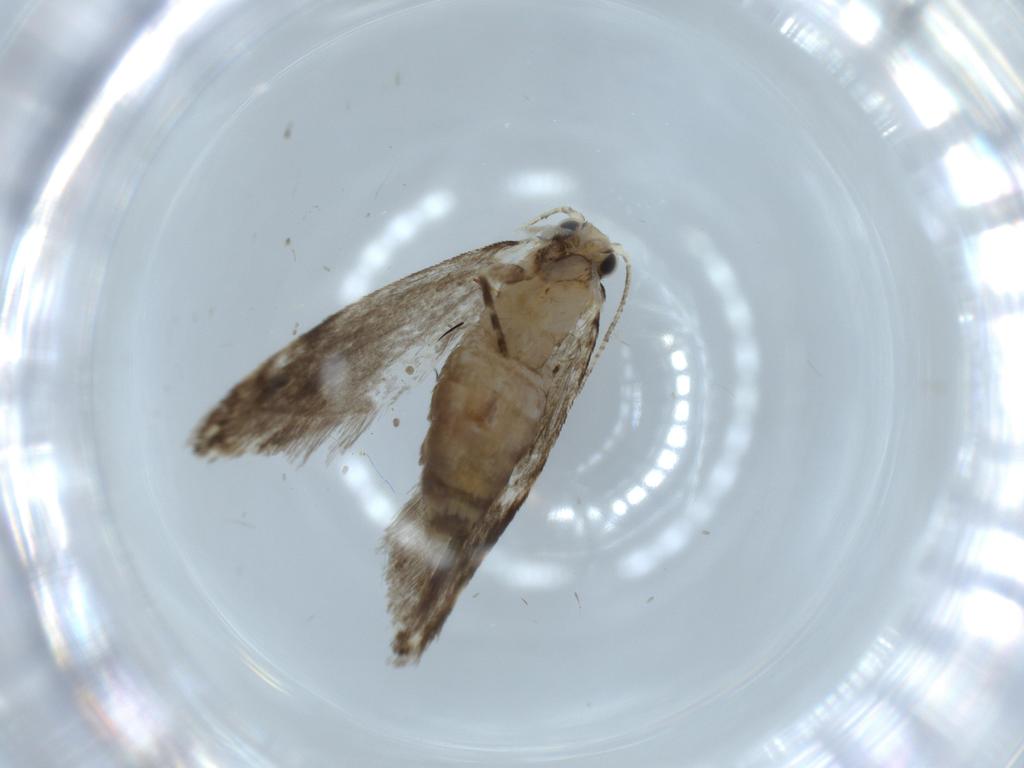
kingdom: Animalia
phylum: Arthropoda
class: Insecta
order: Lepidoptera
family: Tineidae
